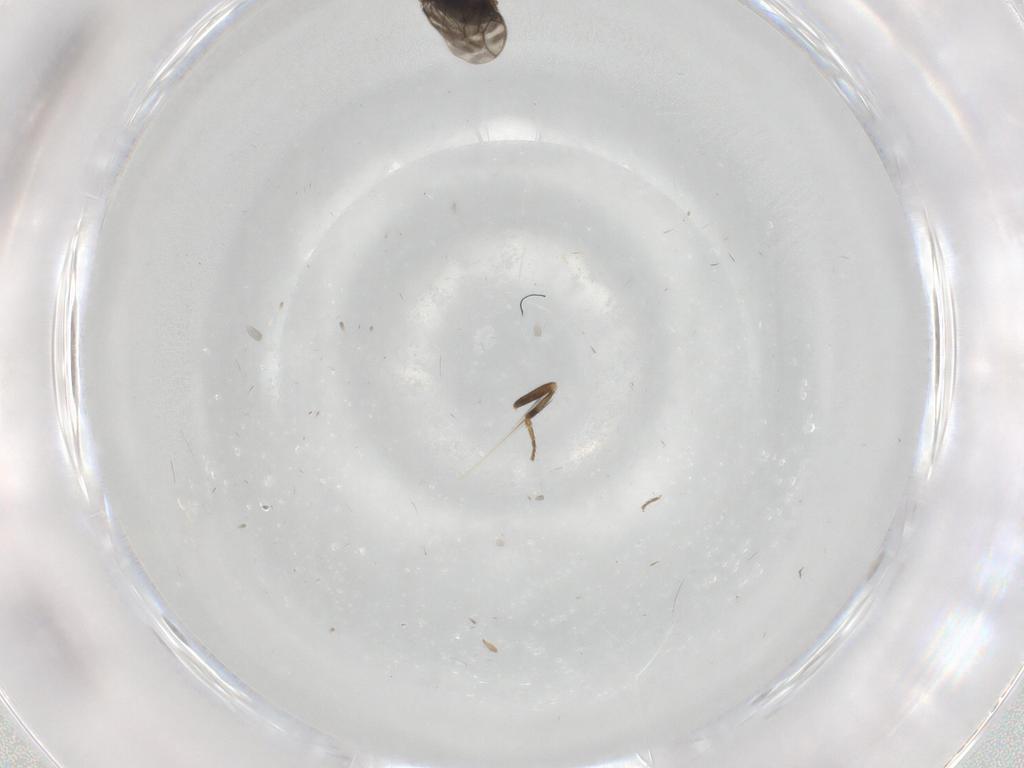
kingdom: Animalia
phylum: Arthropoda
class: Insecta
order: Diptera
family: Sphaeroceridae
